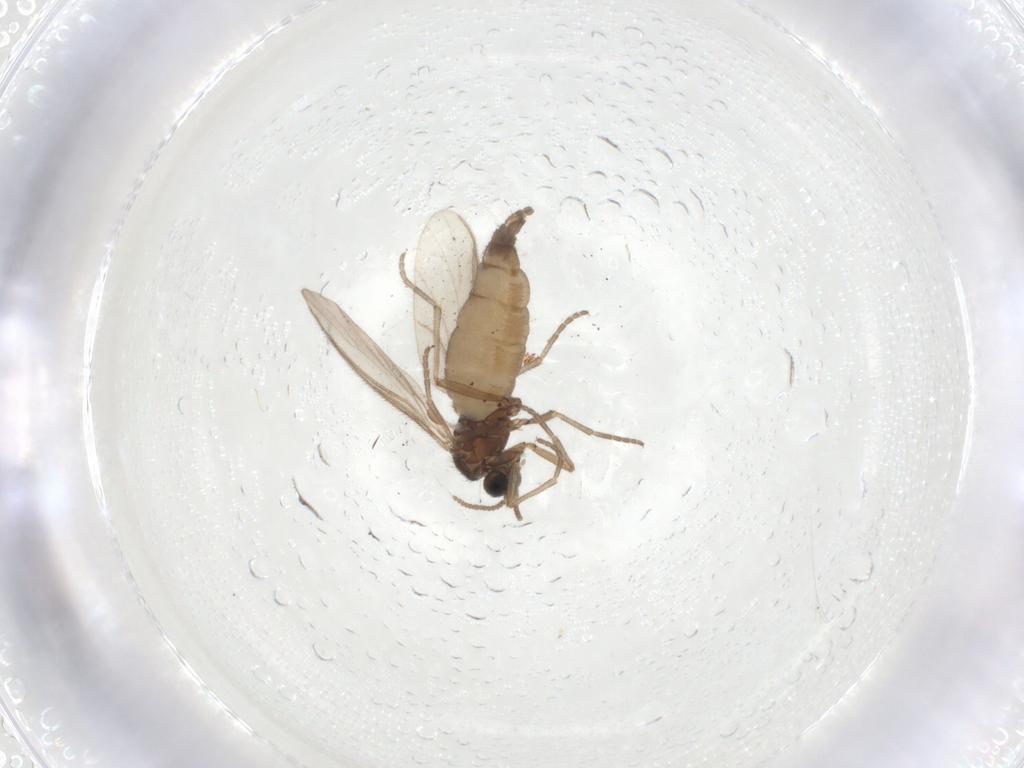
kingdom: Animalia
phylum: Arthropoda
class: Insecta
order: Diptera
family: Sciaridae
